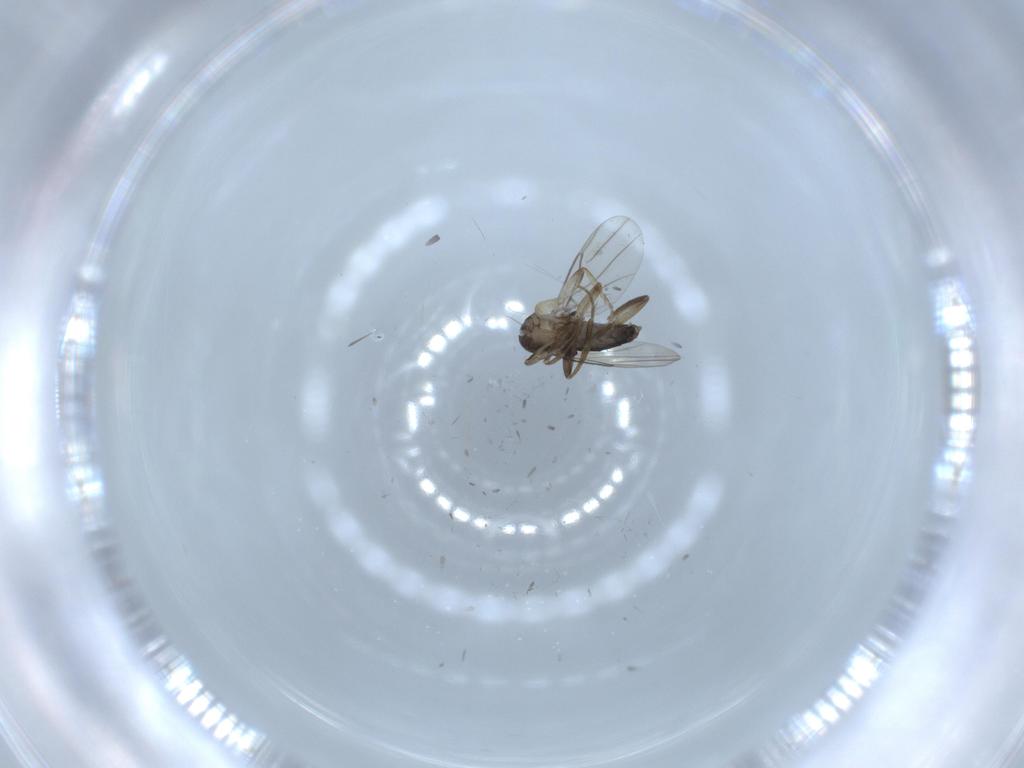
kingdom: Animalia
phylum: Arthropoda
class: Insecta
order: Diptera
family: Phoridae
